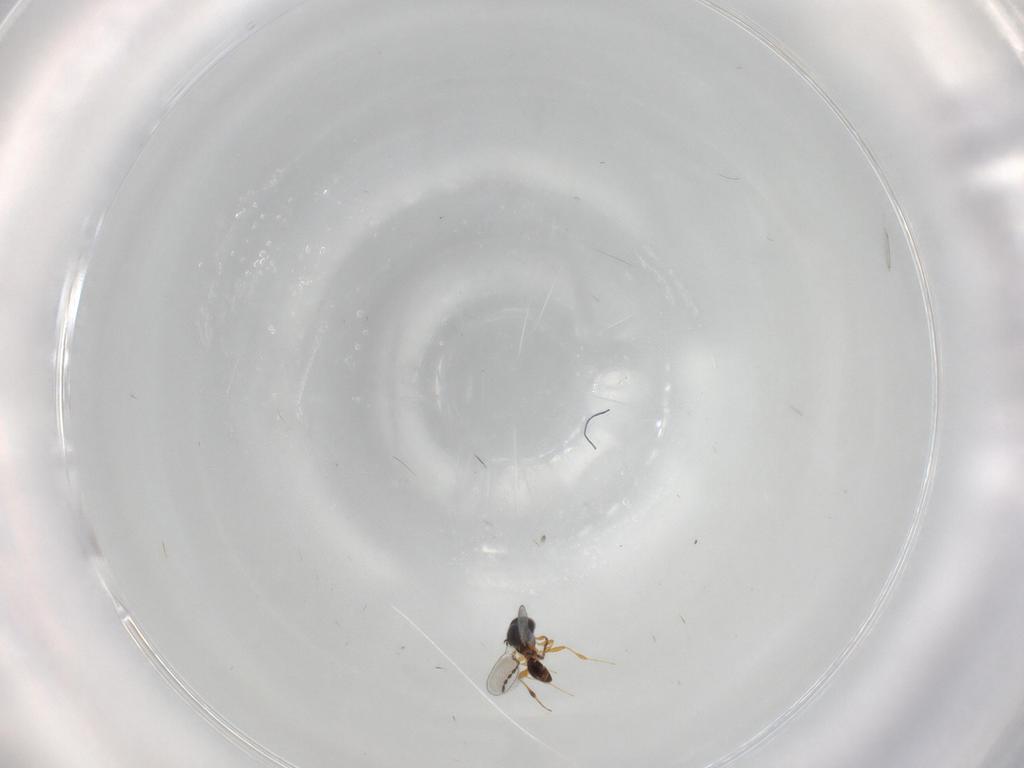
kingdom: Animalia
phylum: Arthropoda
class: Insecta
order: Hymenoptera
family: Platygastridae
